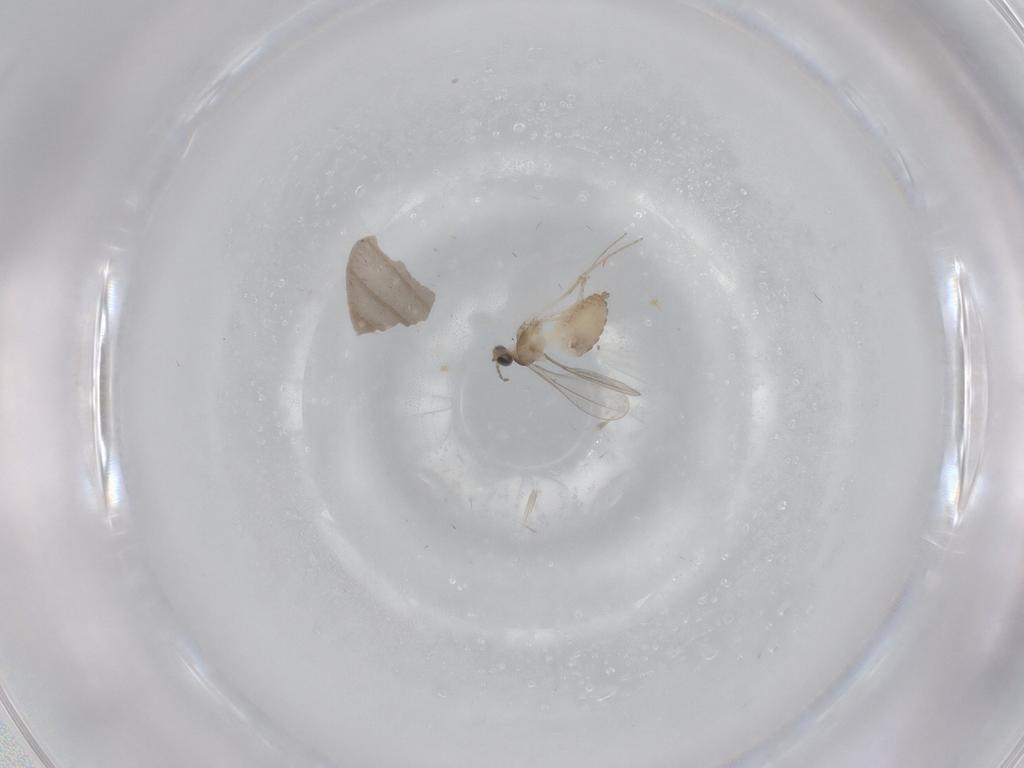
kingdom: Animalia
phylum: Arthropoda
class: Insecta
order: Diptera
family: Cecidomyiidae
